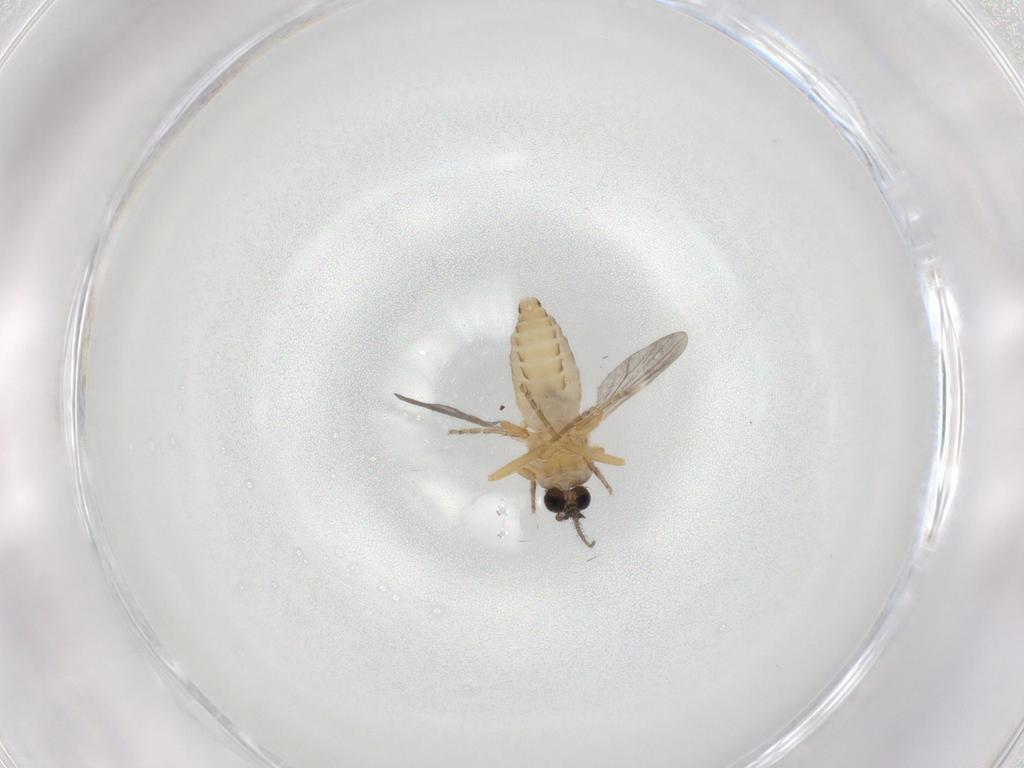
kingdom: Animalia
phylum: Arthropoda
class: Insecta
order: Diptera
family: Ceratopogonidae
